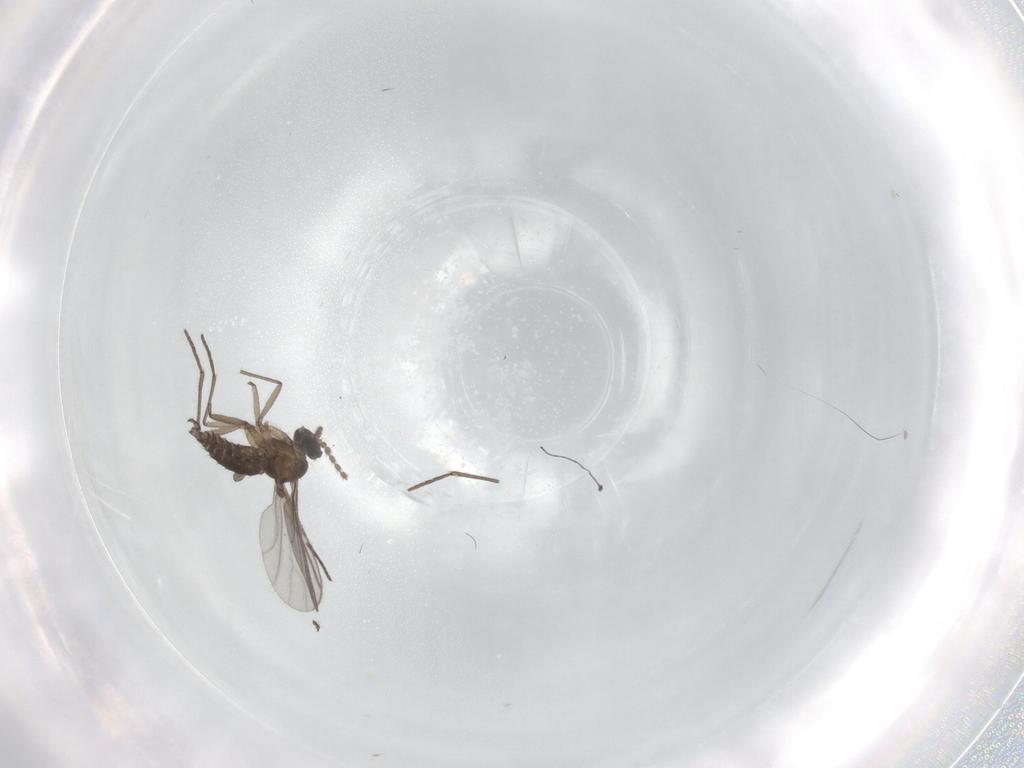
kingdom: Animalia
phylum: Arthropoda
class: Insecta
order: Diptera
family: Sciaridae
